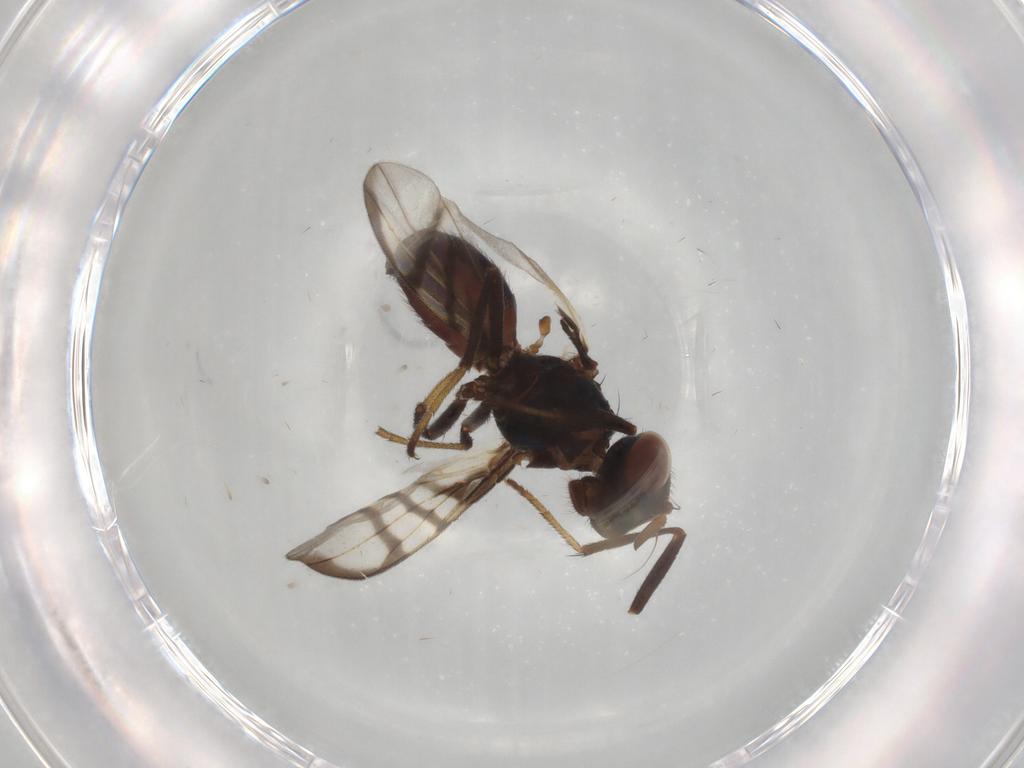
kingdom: Animalia
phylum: Arthropoda
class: Insecta
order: Diptera
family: Platystomatidae
